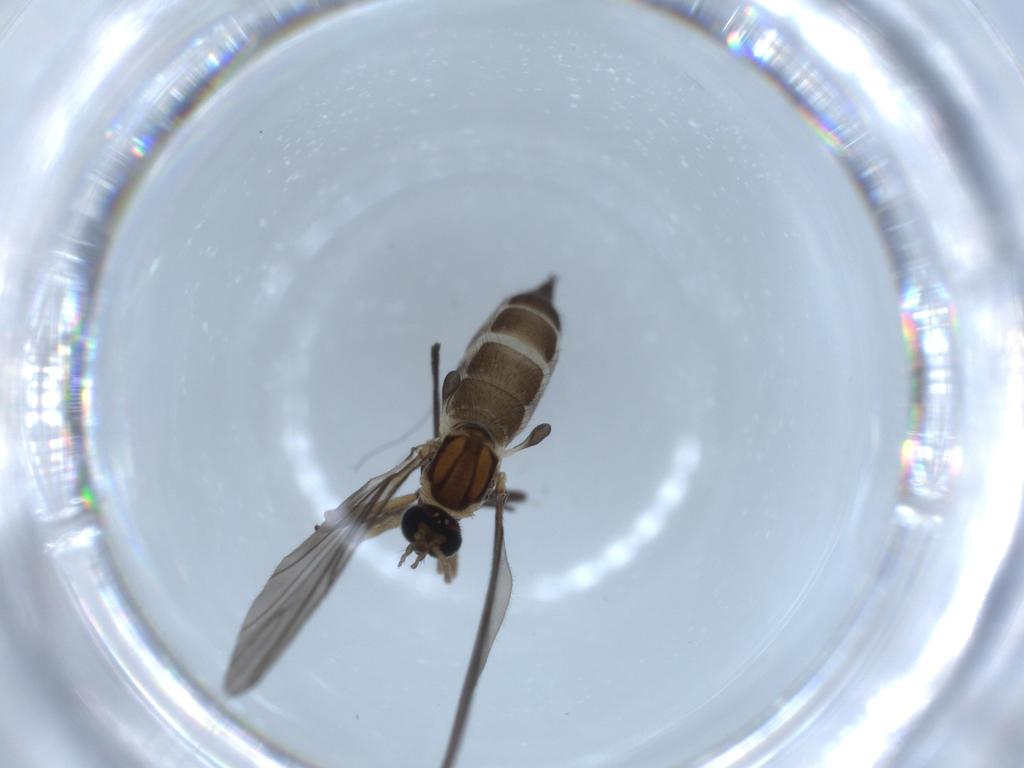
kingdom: Animalia
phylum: Arthropoda
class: Insecta
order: Diptera
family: Sciaridae
